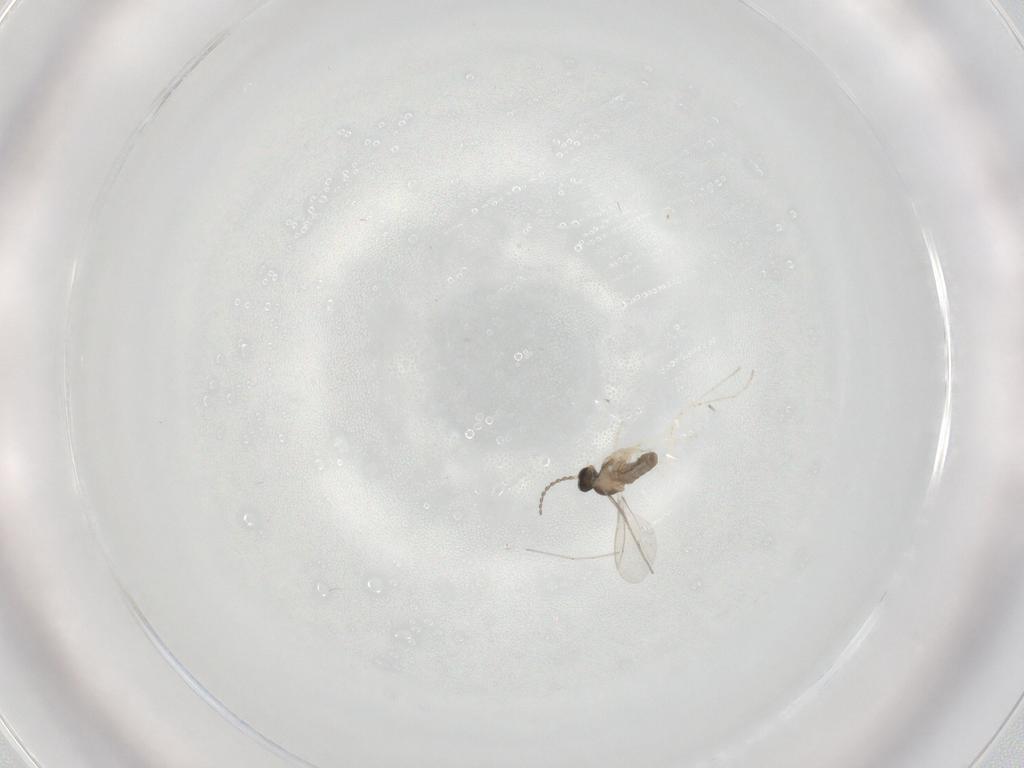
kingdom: Animalia
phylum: Arthropoda
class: Insecta
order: Diptera
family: Cecidomyiidae
